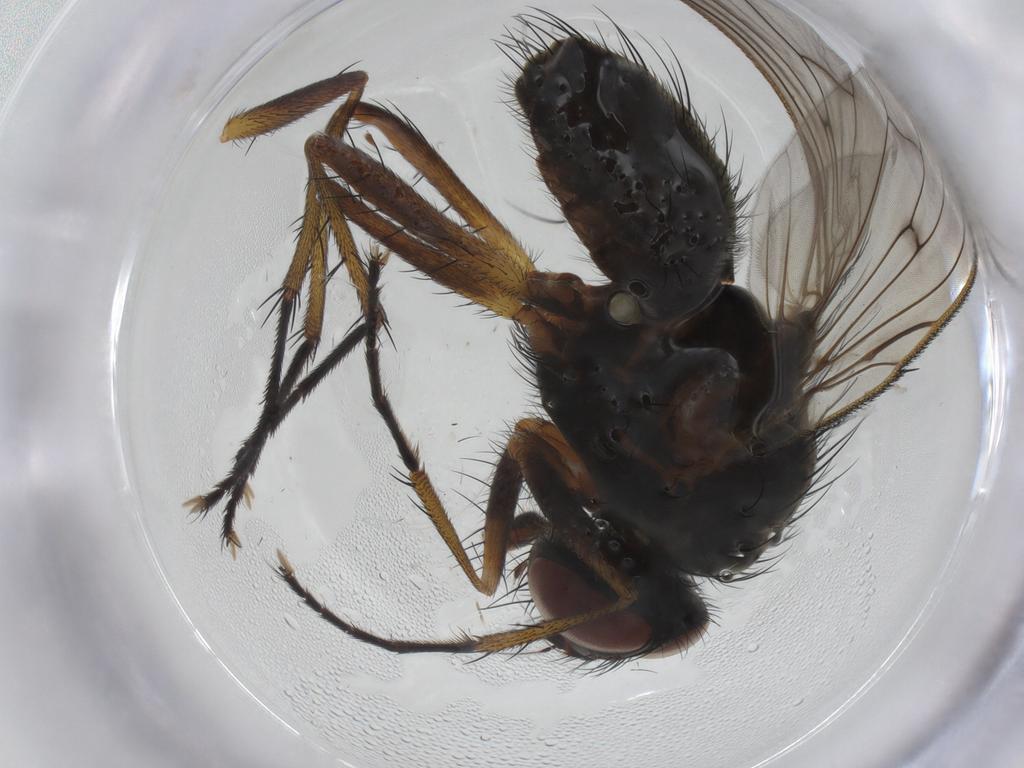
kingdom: Animalia
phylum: Arthropoda
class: Insecta
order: Diptera
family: Anthomyiidae
